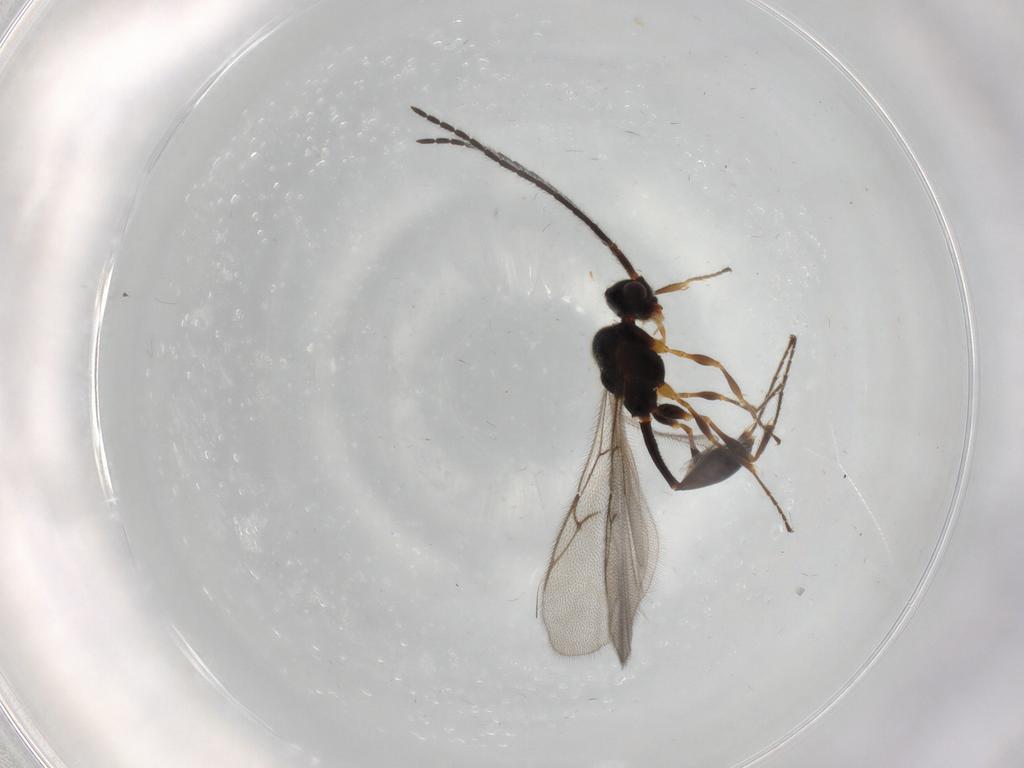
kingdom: Animalia
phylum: Arthropoda
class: Insecta
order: Hymenoptera
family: Diapriidae
